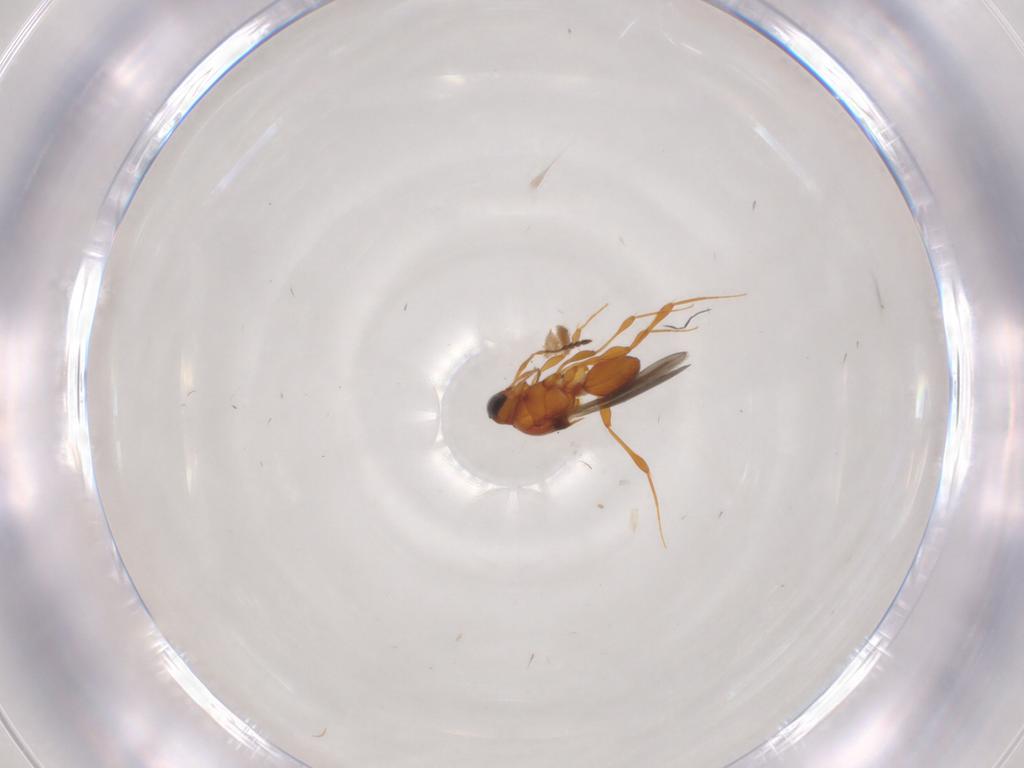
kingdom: Animalia
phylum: Arthropoda
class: Insecta
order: Hymenoptera
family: Platygastridae
